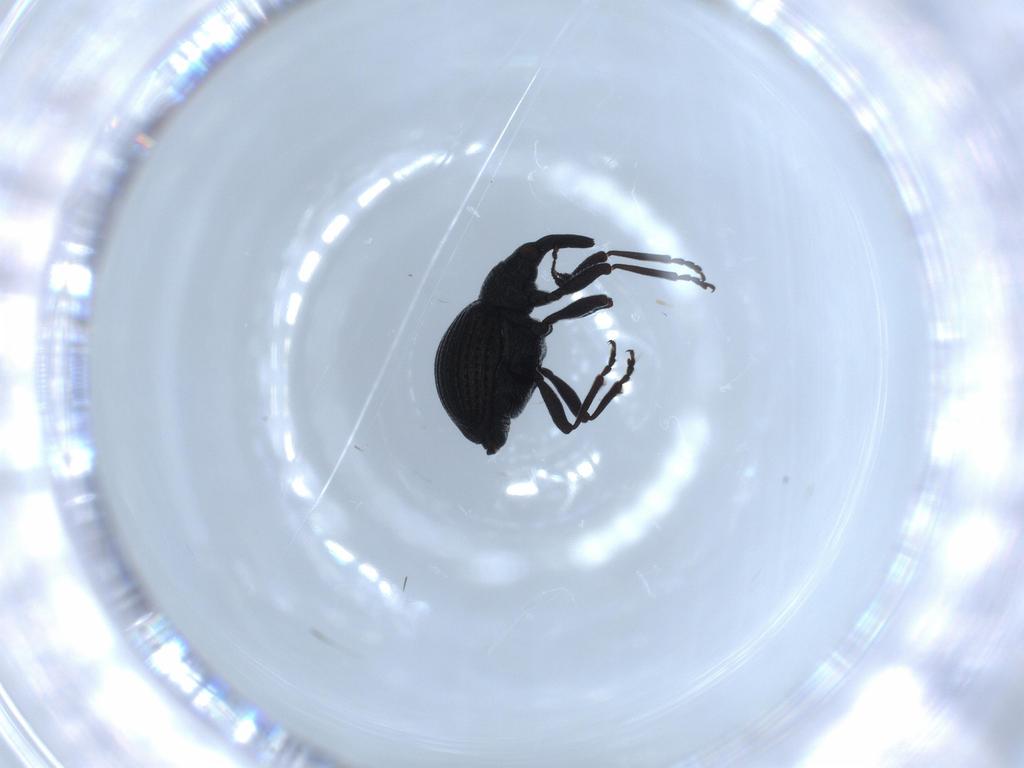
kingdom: Animalia
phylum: Arthropoda
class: Insecta
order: Coleoptera
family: Brentidae
